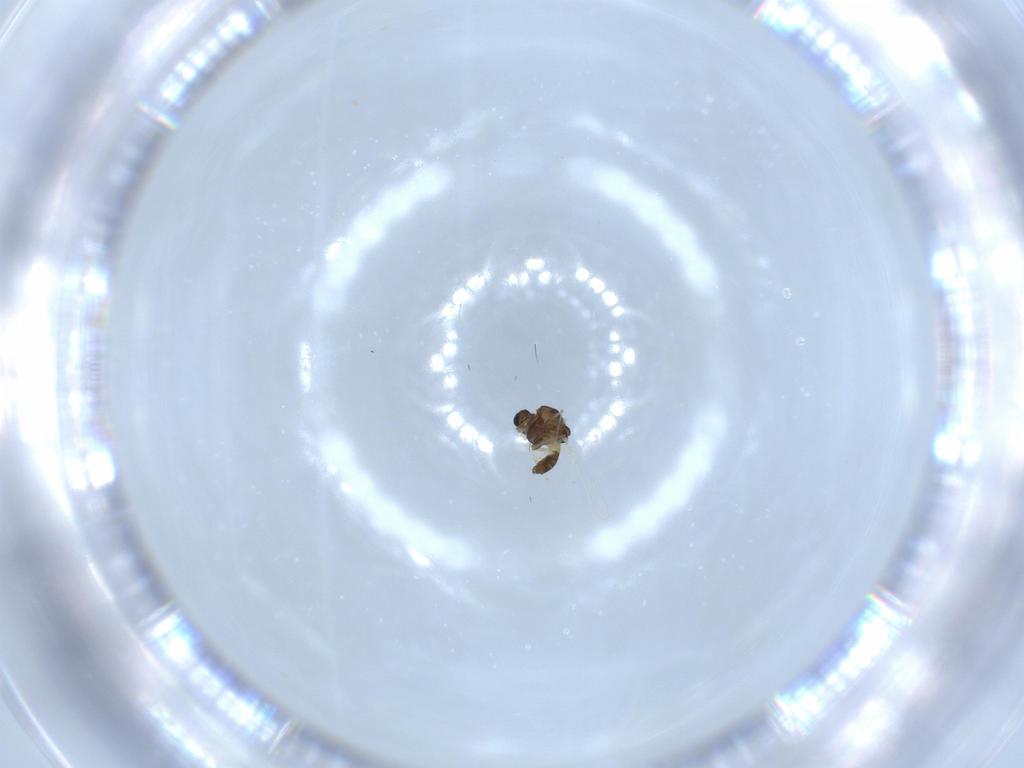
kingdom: Animalia
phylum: Arthropoda
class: Insecta
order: Diptera
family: Chironomidae
